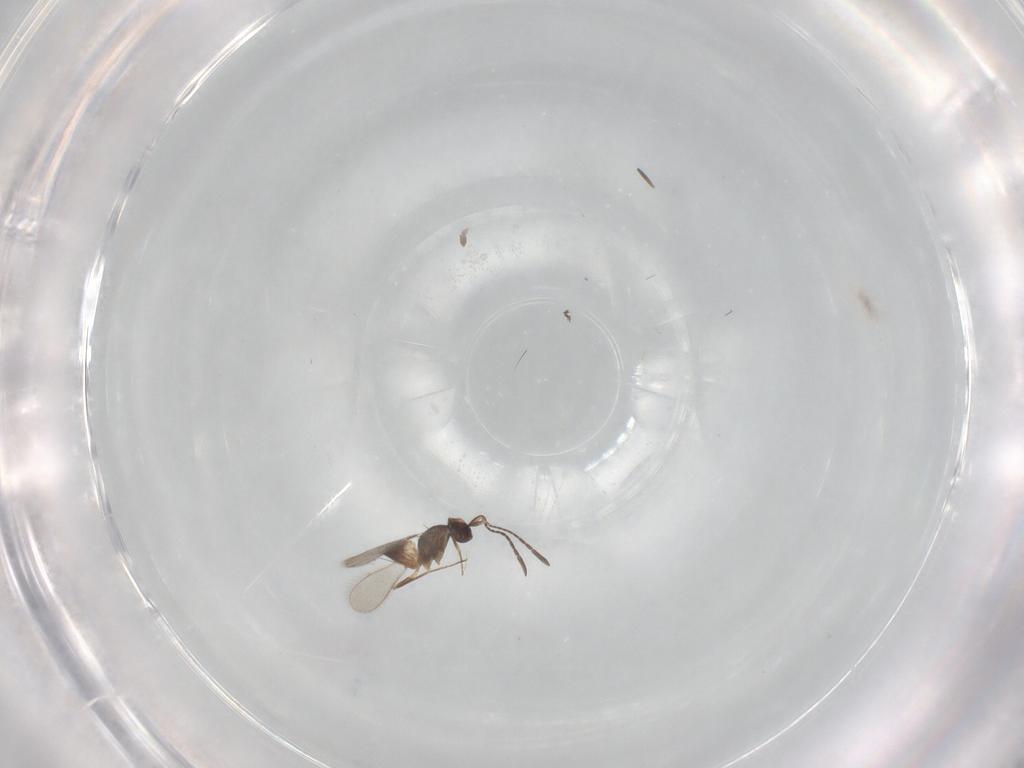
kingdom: Animalia
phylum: Arthropoda
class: Insecta
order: Hymenoptera
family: Mymaridae
